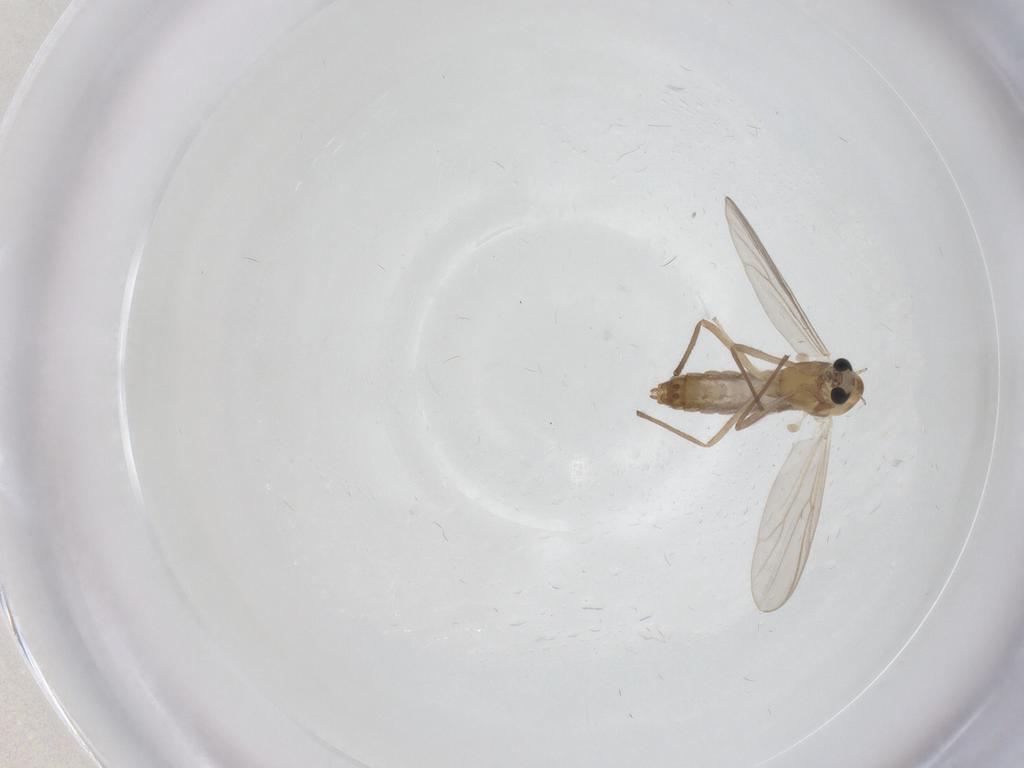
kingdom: Animalia
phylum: Arthropoda
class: Insecta
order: Diptera
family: Chironomidae
